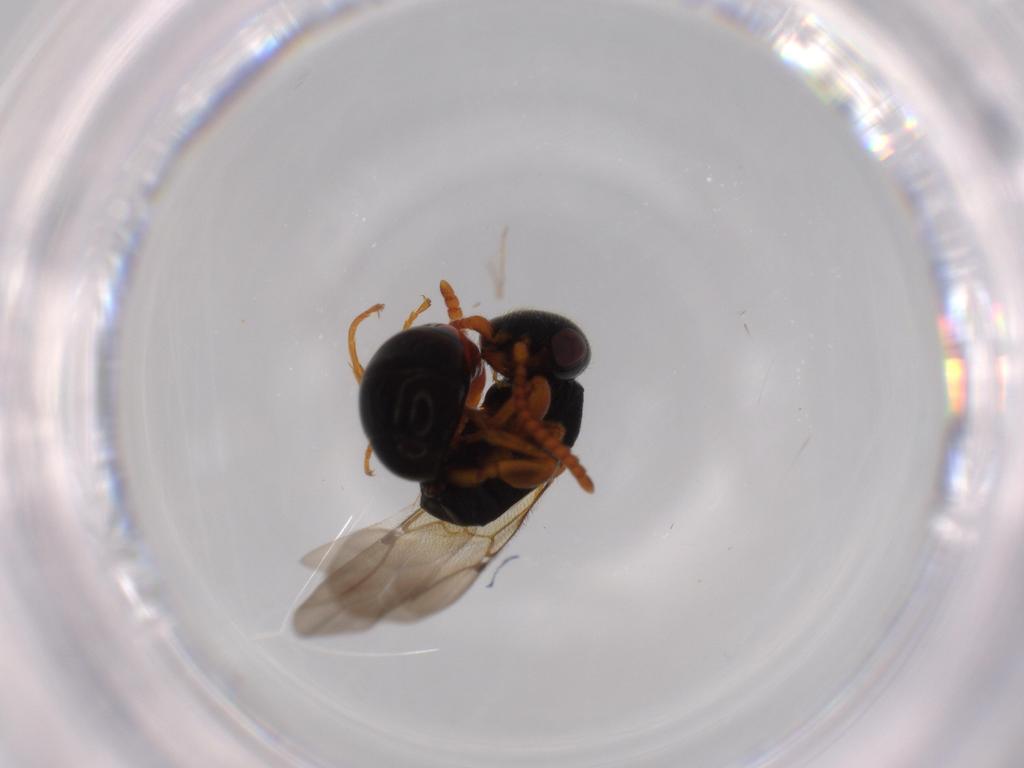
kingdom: Animalia
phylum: Arthropoda
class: Insecta
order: Hymenoptera
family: Bethylidae
